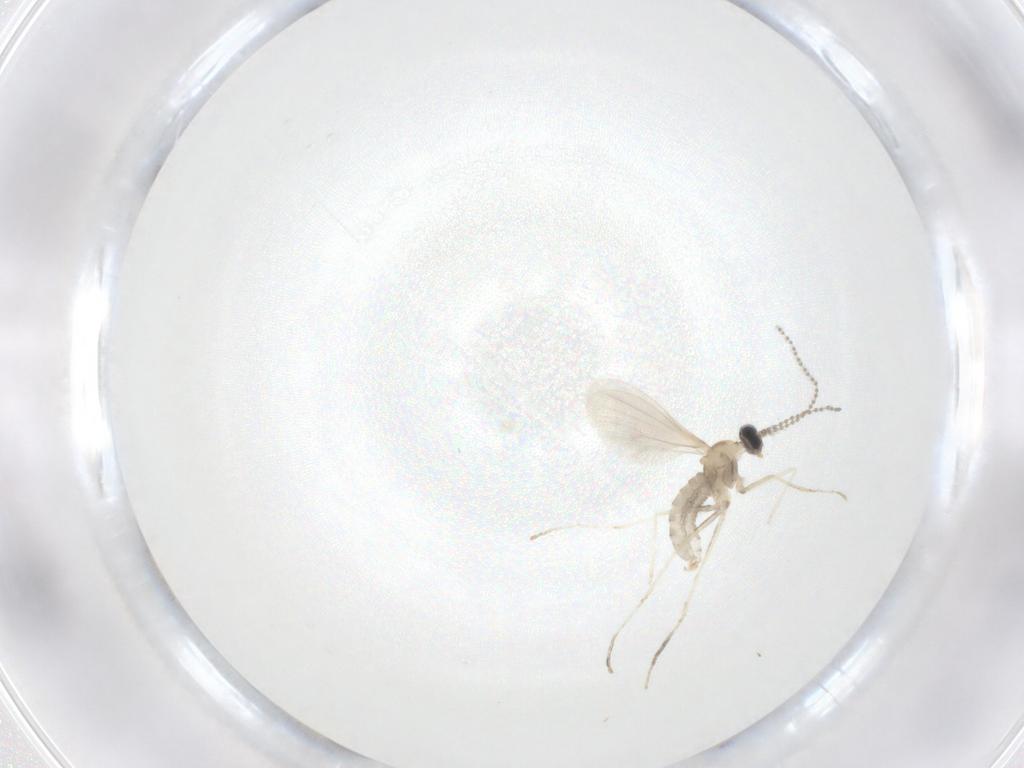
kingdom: Animalia
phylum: Arthropoda
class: Insecta
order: Diptera
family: Cecidomyiidae
